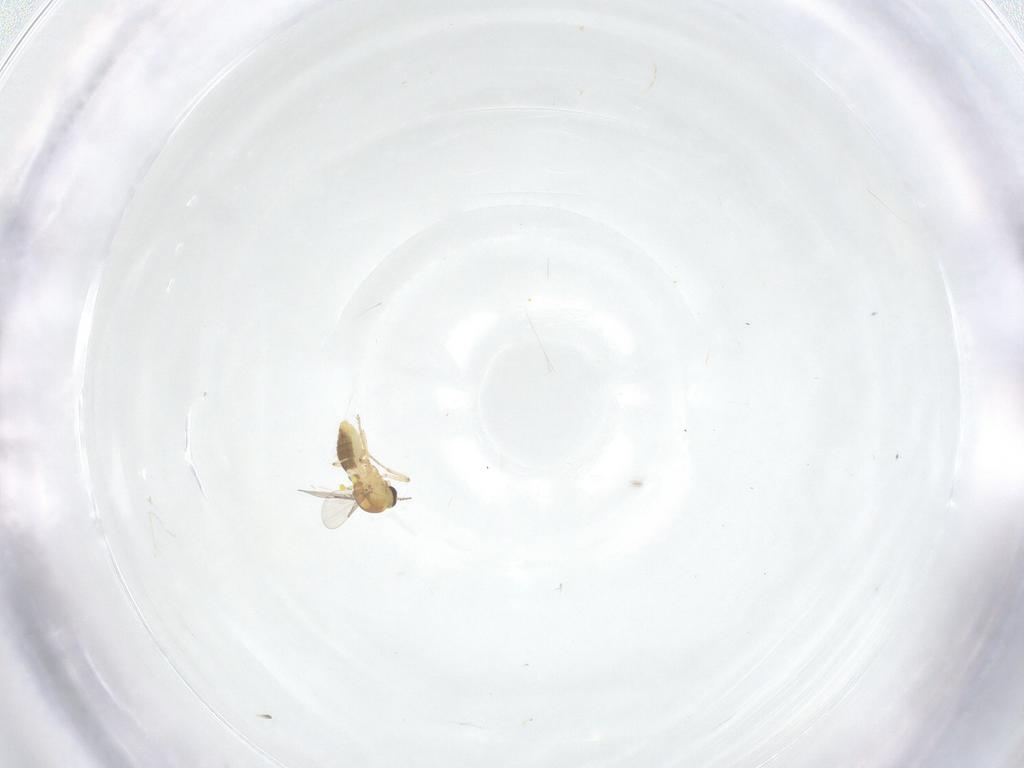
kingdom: Animalia
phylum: Arthropoda
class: Insecta
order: Diptera
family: Ceratopogonidae
